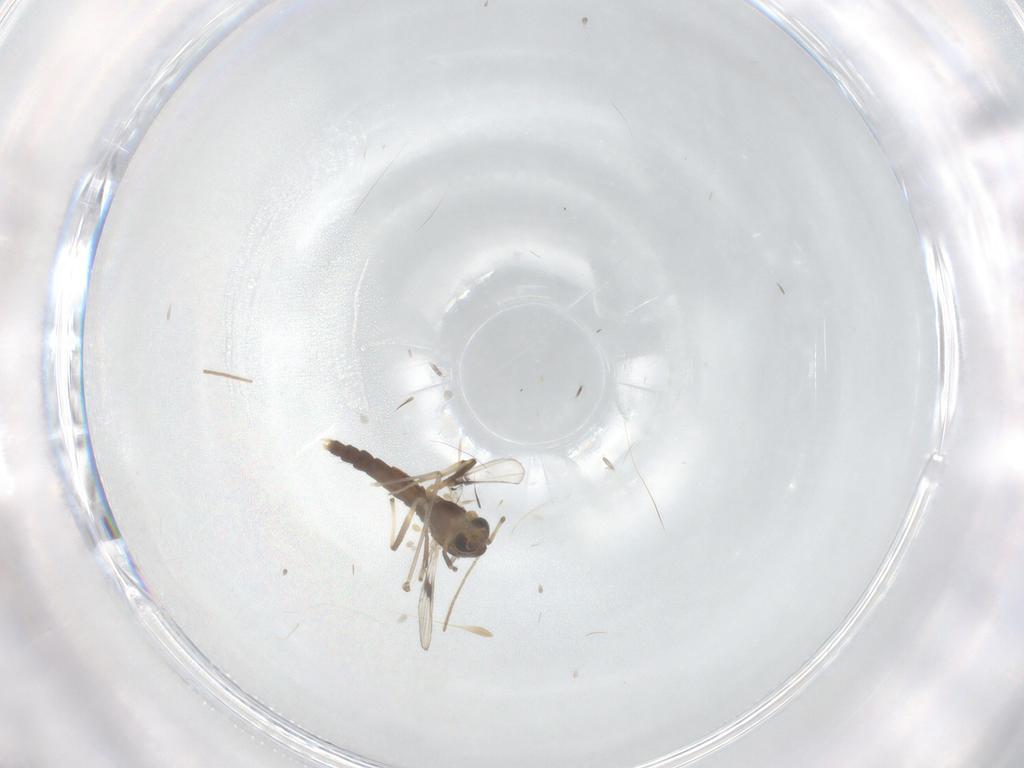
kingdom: Animalia
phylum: Arthropoda
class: Insecta
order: Diptera
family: Chironomidae
